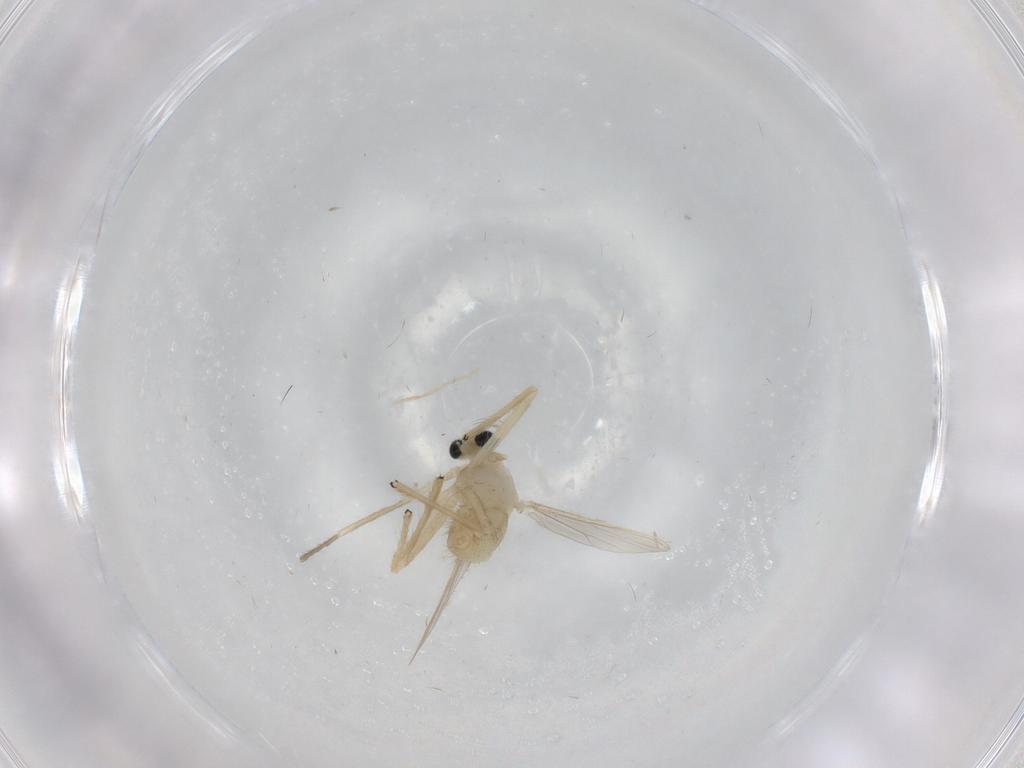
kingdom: Animalia
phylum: Arthropoda
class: Insecta
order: Diptera
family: Chironomidae
